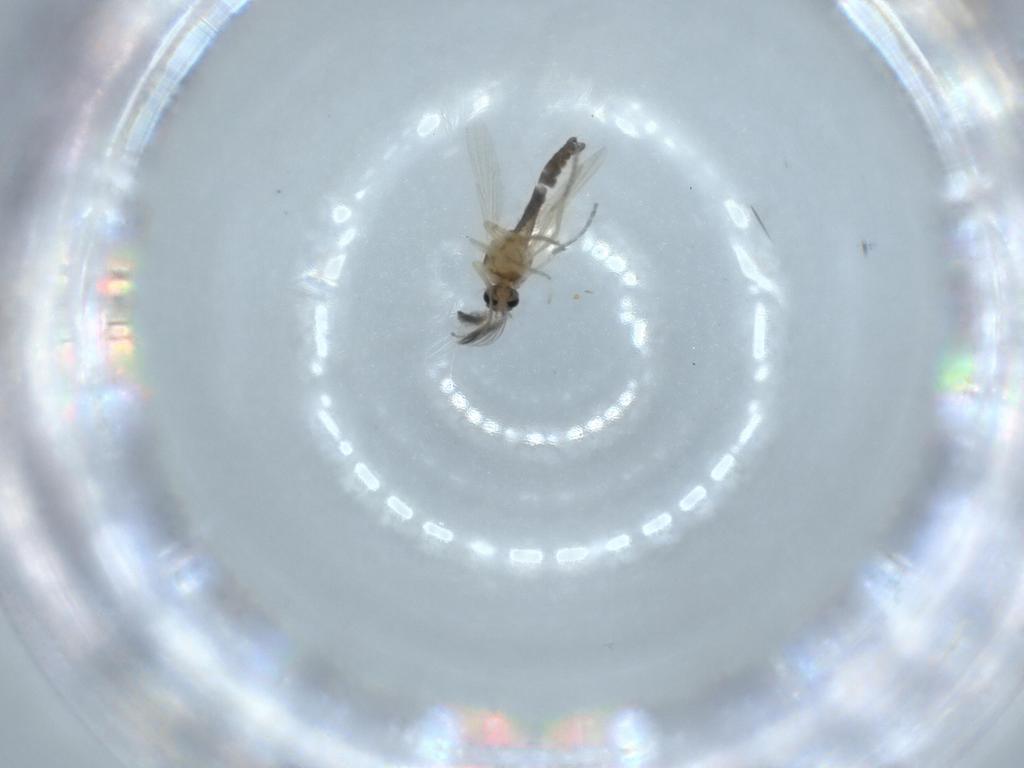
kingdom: Animalia
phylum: Arthropoda
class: Insecta
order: Diptera
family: Ceratopogonidae
